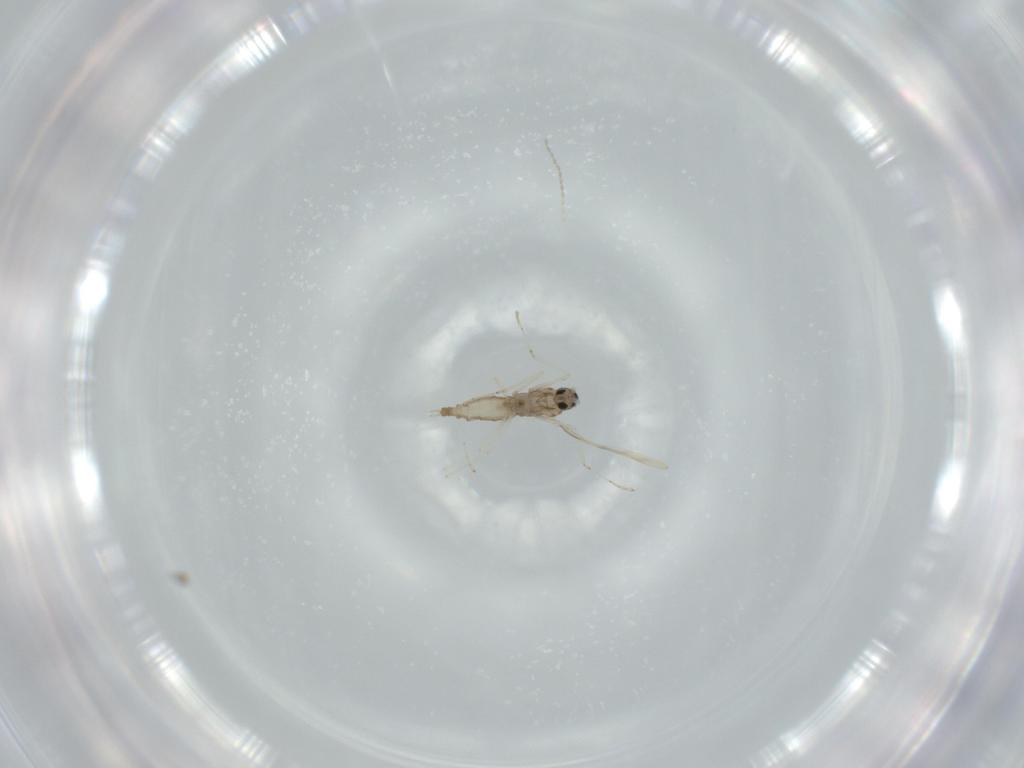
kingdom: Animalia
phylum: Arthropoda
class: Insecta
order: Diptera
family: Cecidomyiidae
